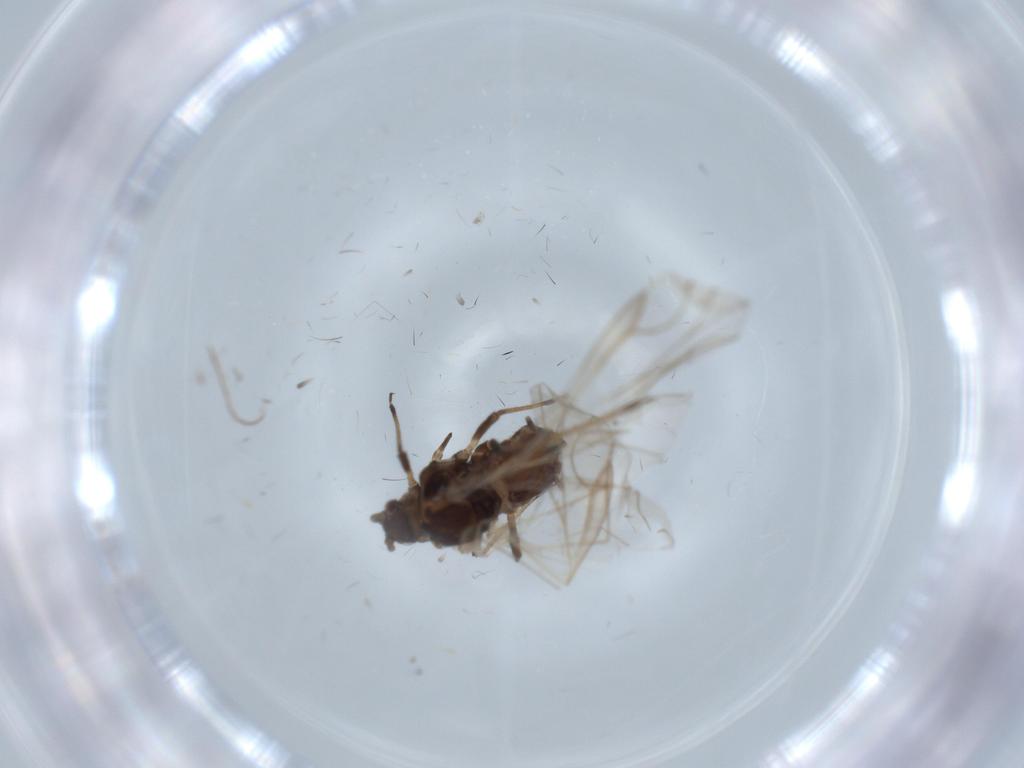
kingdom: Animalia
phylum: Arthropoda
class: Insecta
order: Hemiptera
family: Aphididae
